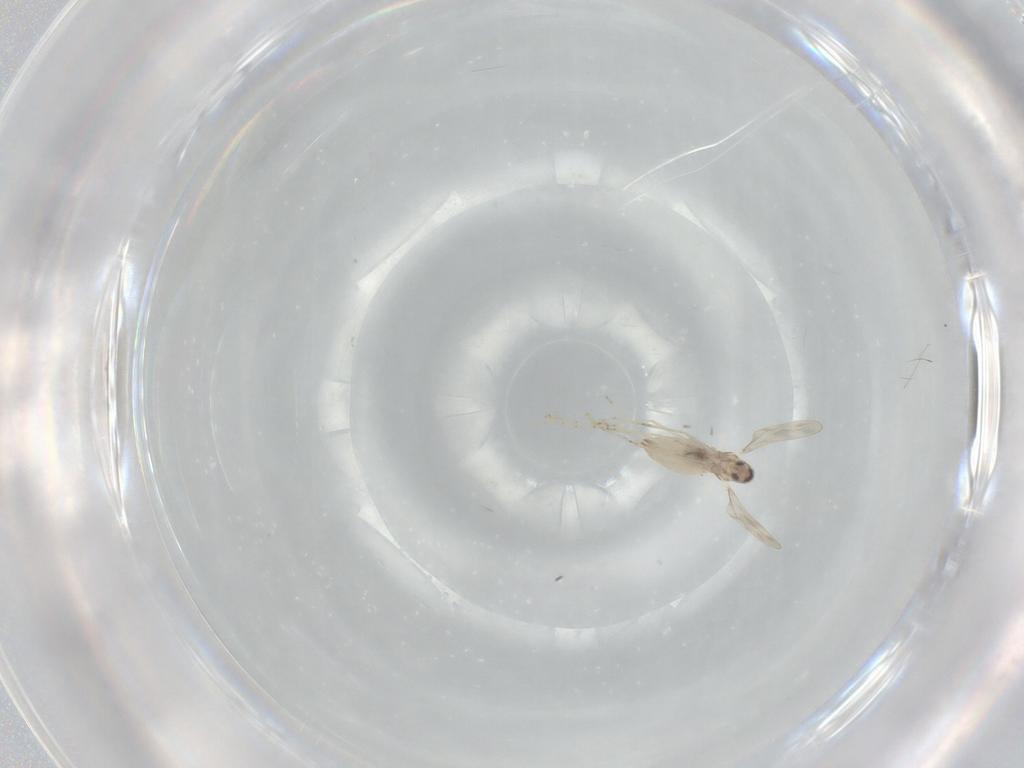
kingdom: Animalia
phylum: Arthropoda
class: Insecta
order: Diptera
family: Cecidomyiidae
